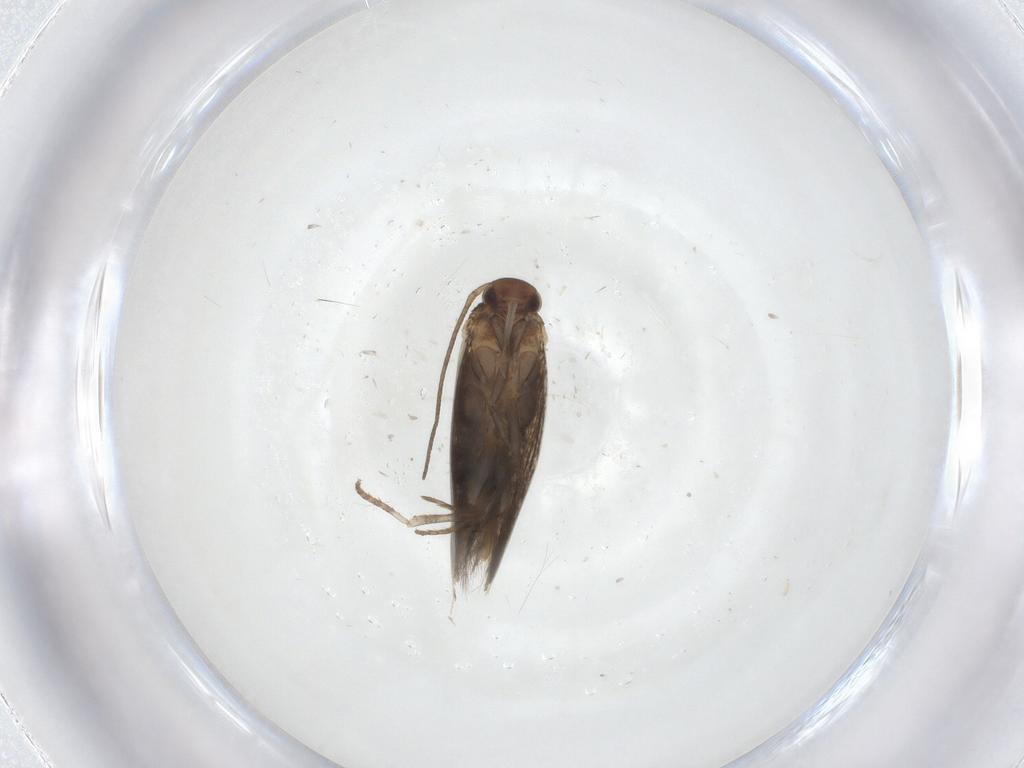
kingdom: Animalia
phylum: Arthropoda
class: Insecta
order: Lepidoptera
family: Elachistidae
